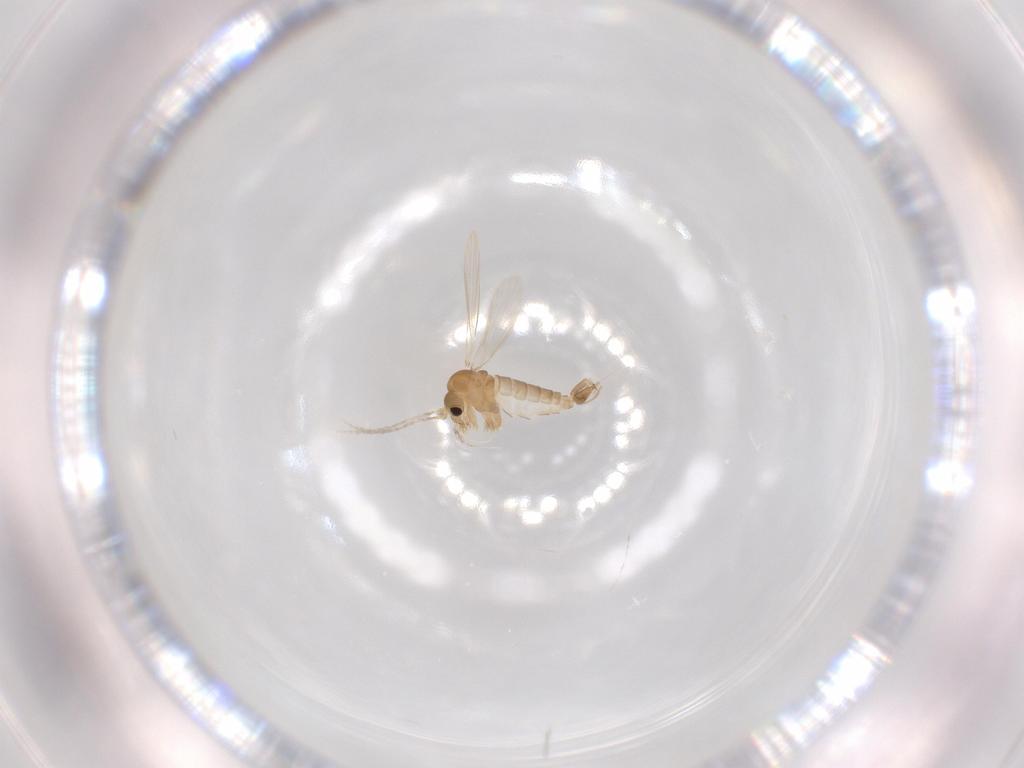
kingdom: Animalia
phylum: Arthropoda
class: Insecta
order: Diptera
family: Psychodidae
